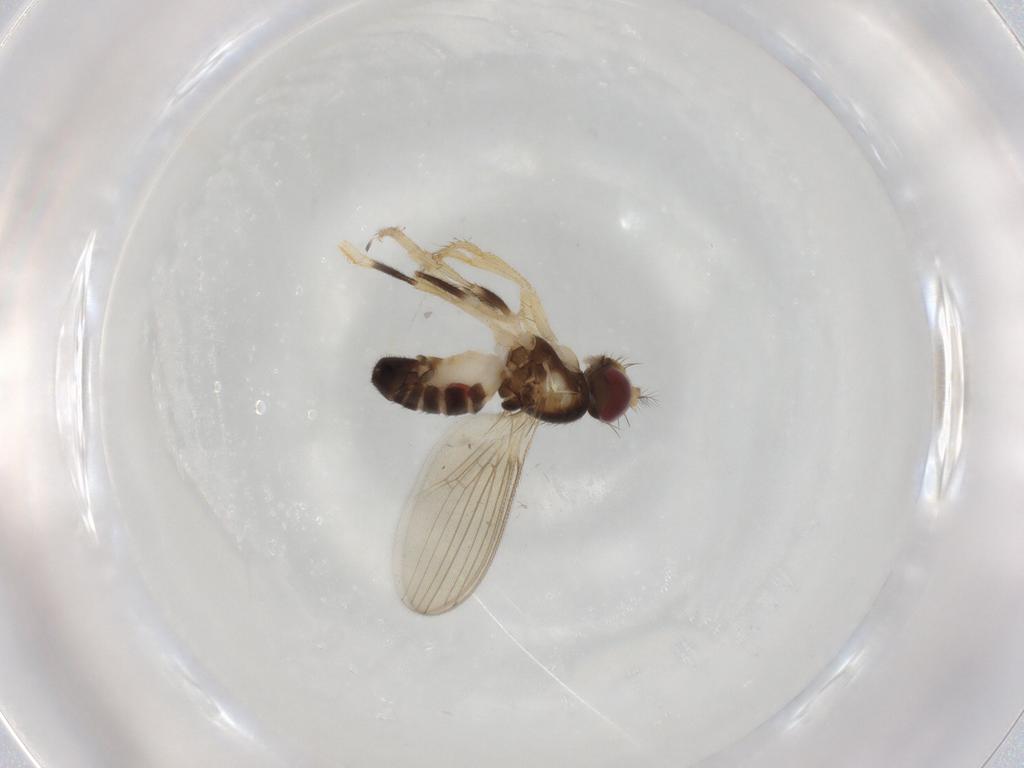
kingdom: Animalia
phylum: Arthropoda
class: Insecta
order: Diptera
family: Periscelididae
